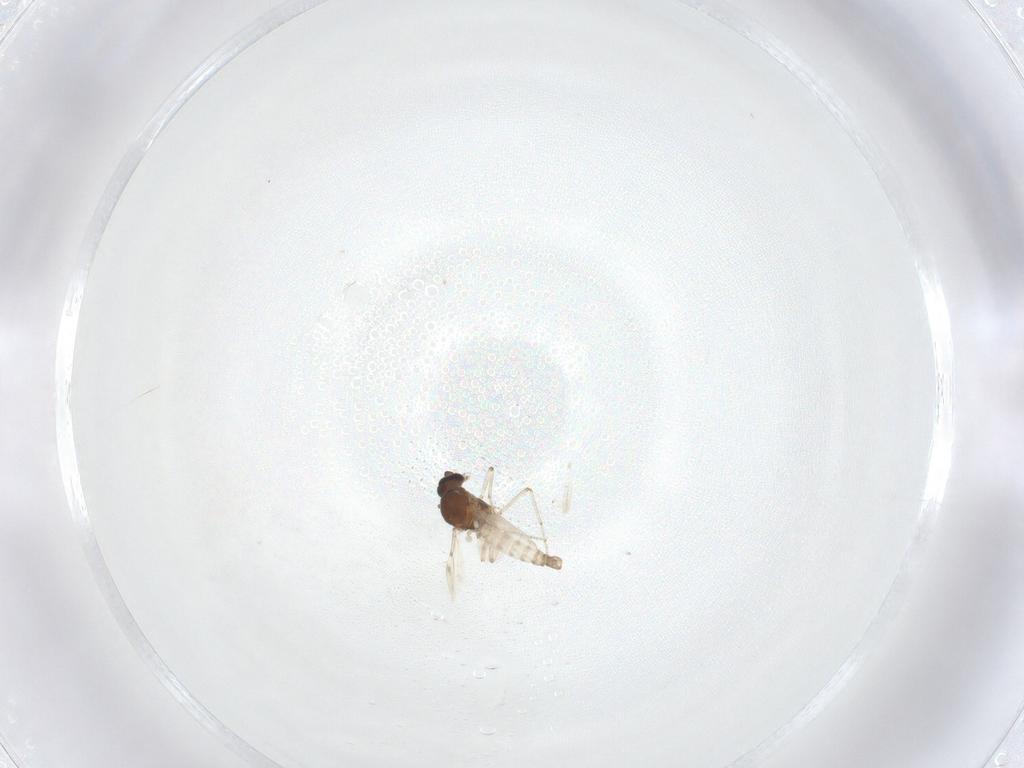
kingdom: Animalia
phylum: Arthropoda
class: Insecta
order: Diptera
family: Ceratopogonidae
